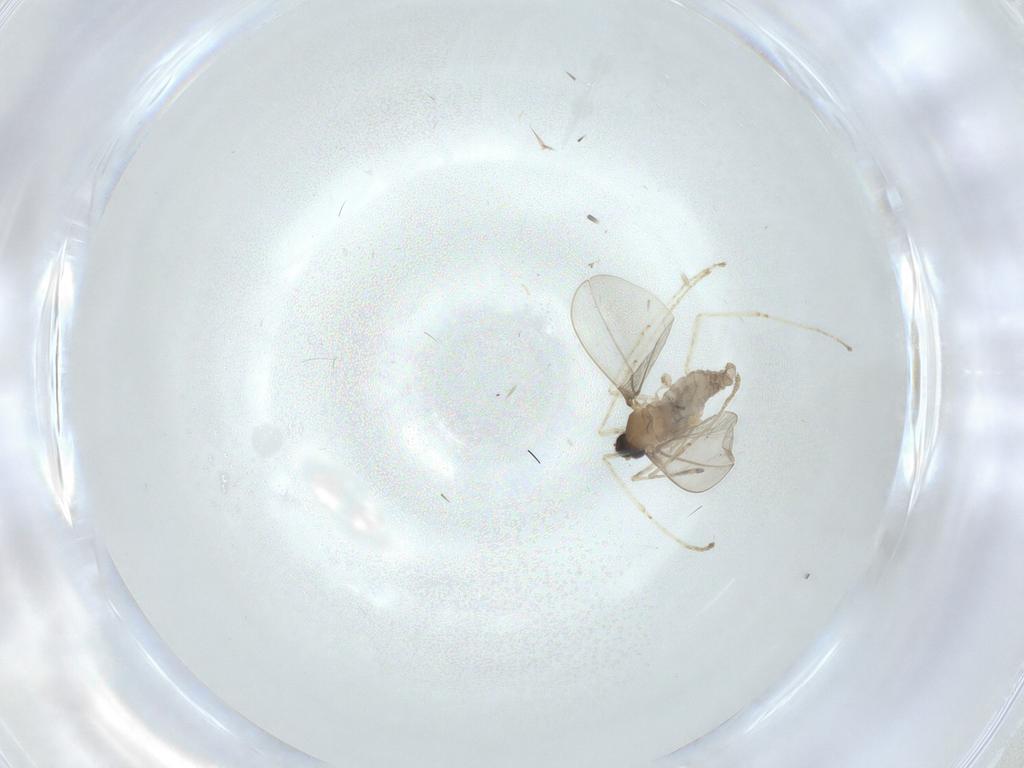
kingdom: Animalia
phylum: Arthropoda
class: Insecta
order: Diptera
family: Cecidomyiidae
